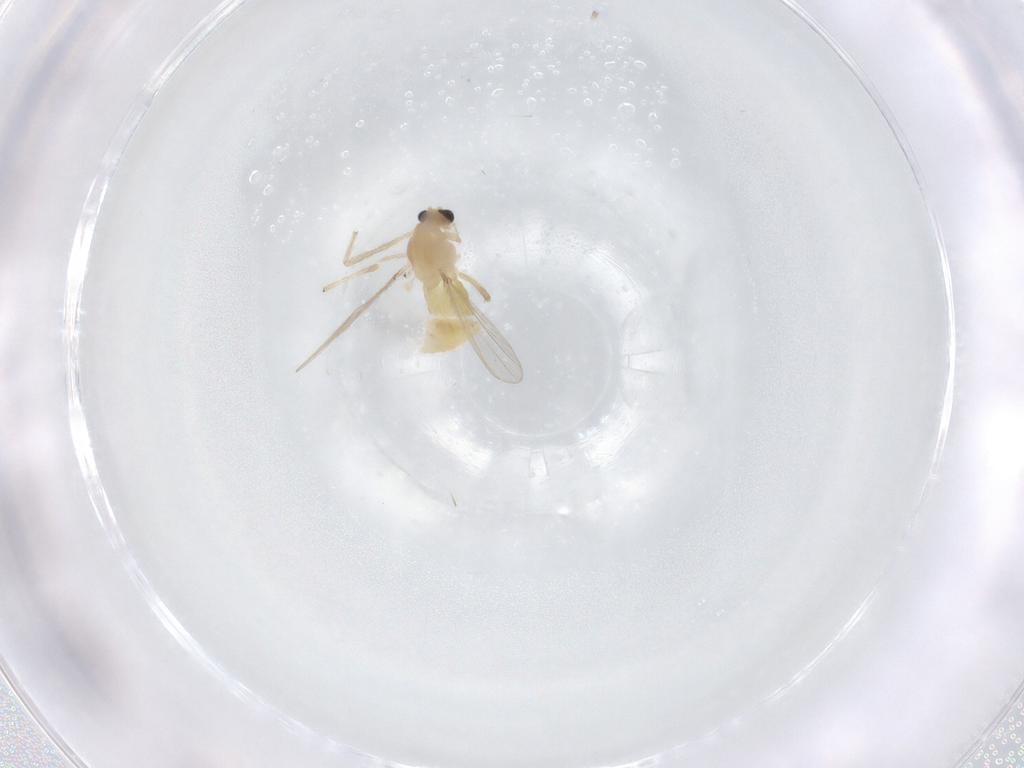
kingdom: Animalia
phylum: Arthropoda
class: Insecta
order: Diptera
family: Chironomidae
